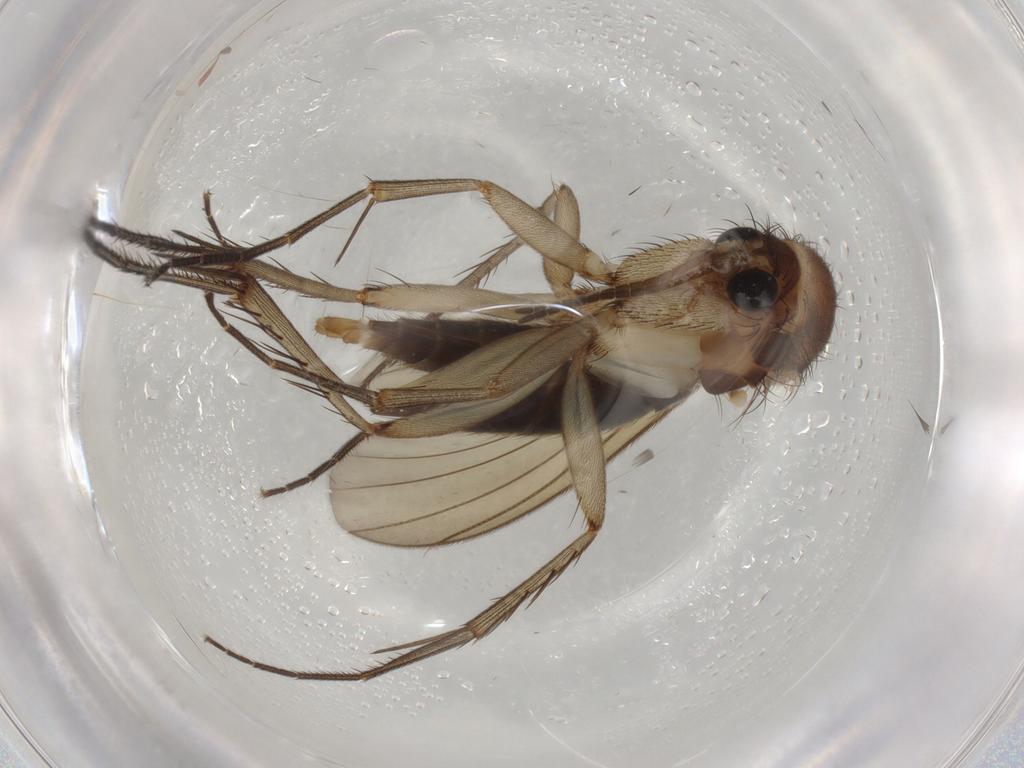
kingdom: Animalia
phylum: Arthropoda
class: Insecta
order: Diptera
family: Mycetophilidae
